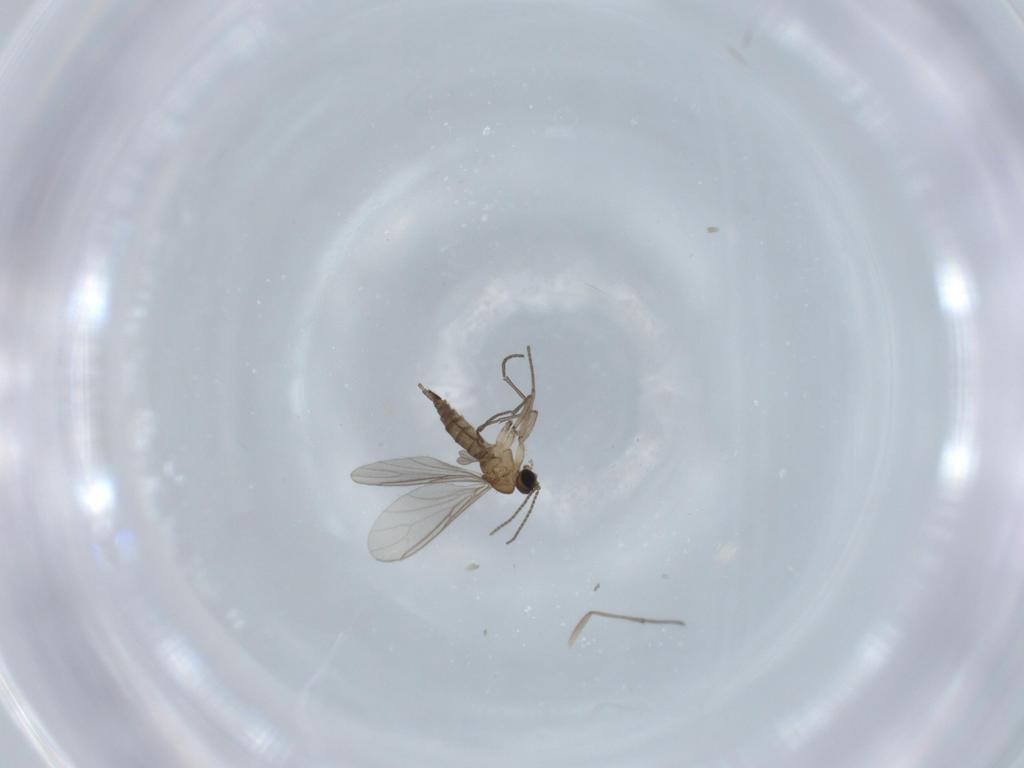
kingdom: Animalia
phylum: Arthropoda
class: Insecta
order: Diptera
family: Sciaridae
